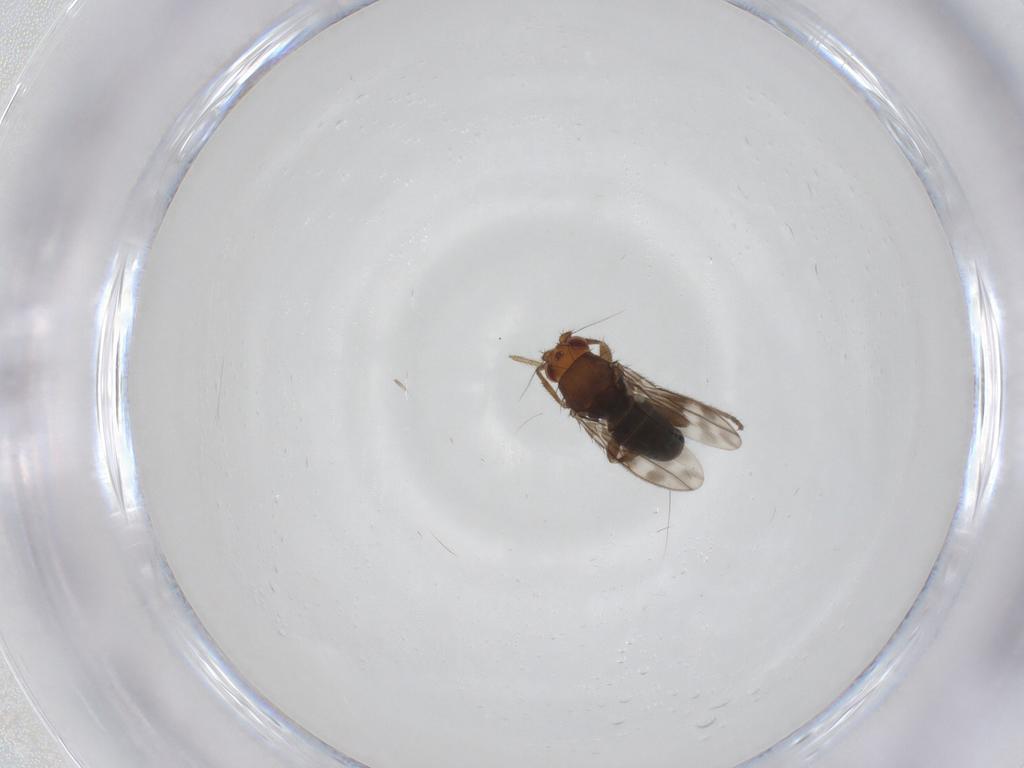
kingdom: Animalia
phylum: Arthropoda
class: Insecta
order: Diptera
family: Sphaeroceridae
